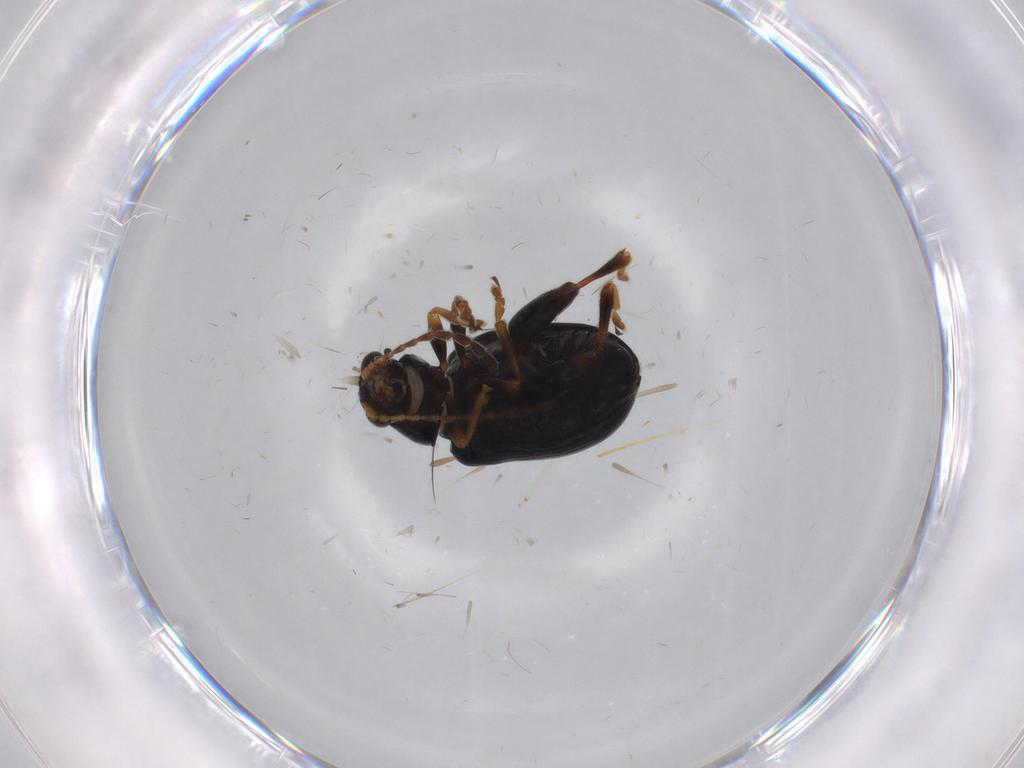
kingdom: Animalia
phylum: Arthropoda
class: Insecta
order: Coleoptera
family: Chrysomelidae
